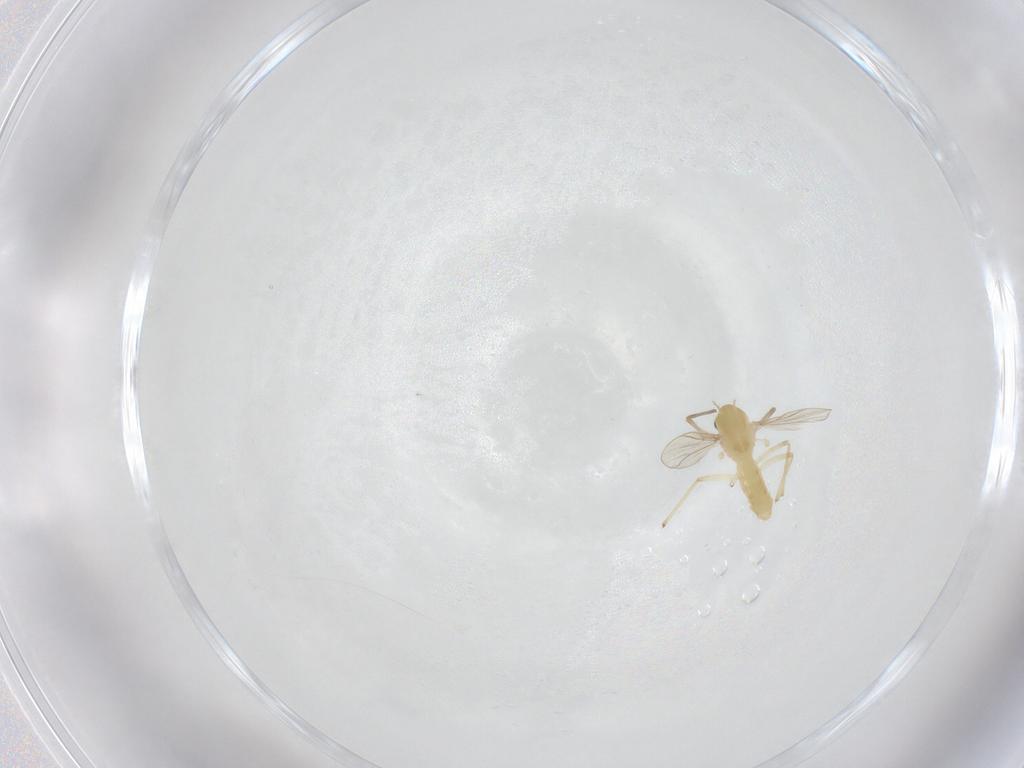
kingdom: Animalia
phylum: Arthropoda
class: Insecta
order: Diptera
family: Chironomidae
